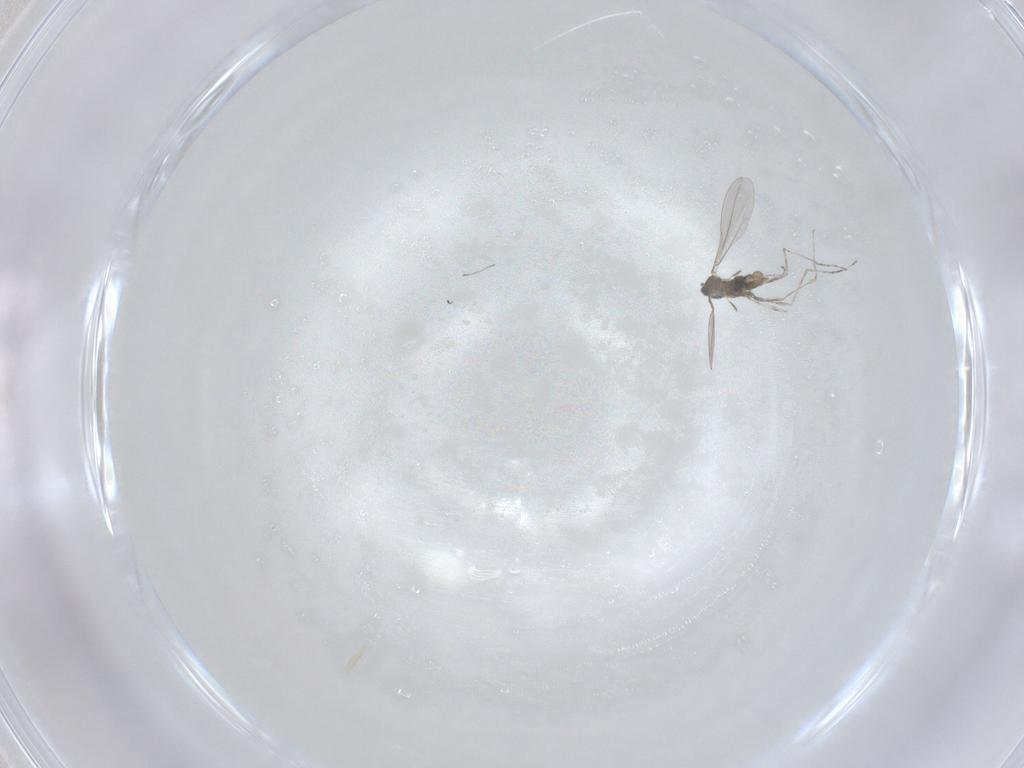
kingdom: Animalia
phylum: Arthropoda
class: Insecta
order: Diptera
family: Cecidomyiidae
